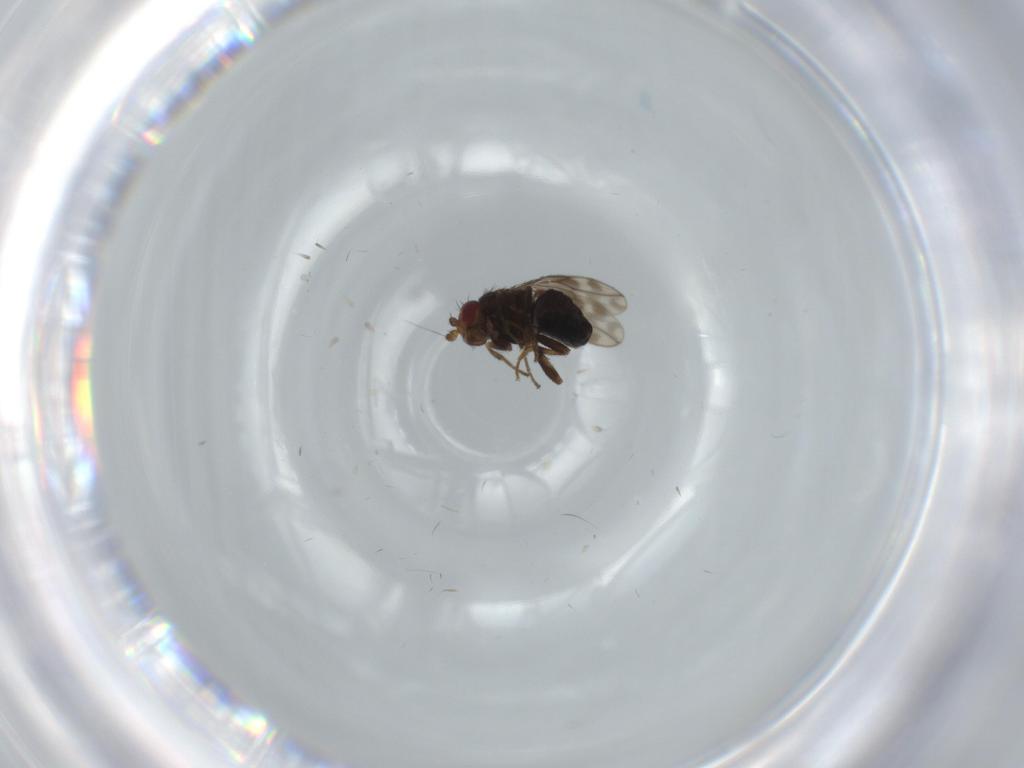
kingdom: Animalia
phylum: Arthropoda
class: Insecta
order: Diptera
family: Sphaeroceridae
